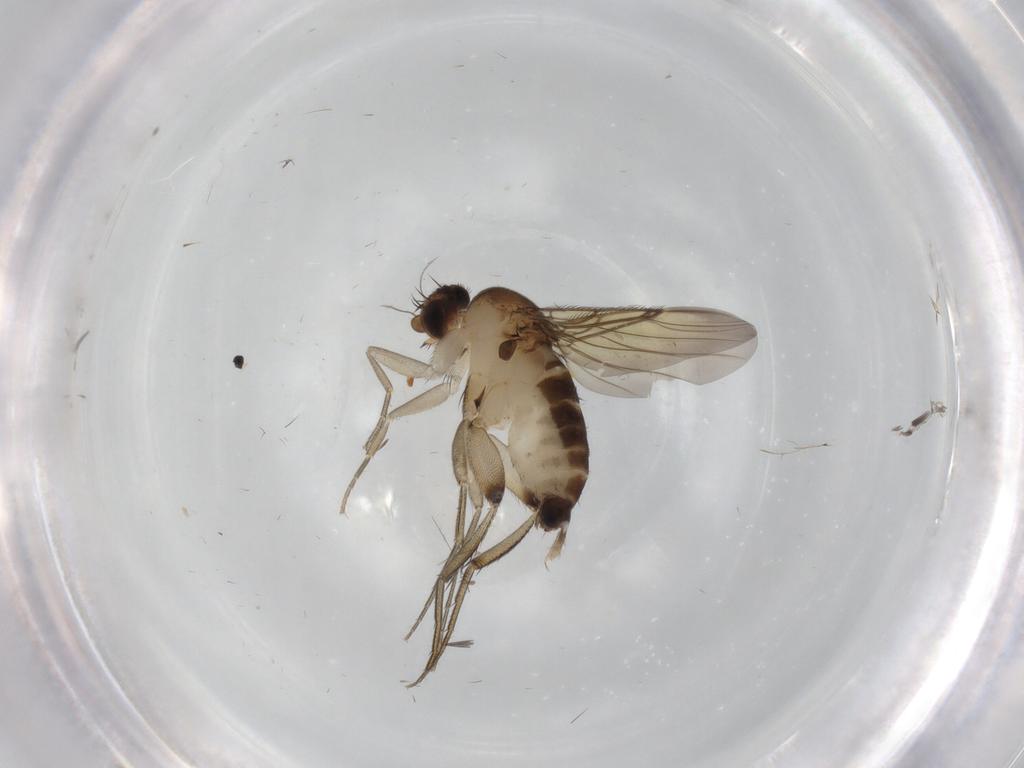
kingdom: Animalia
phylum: Arthropoda
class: Insecta
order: Diptera
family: Phoridae
